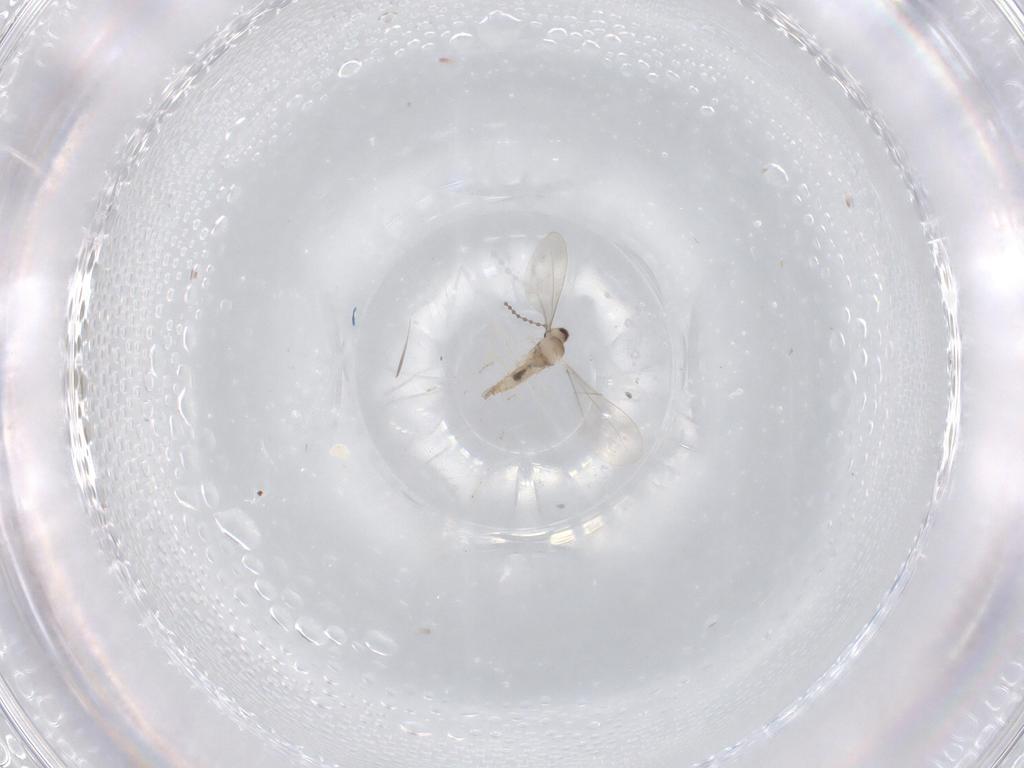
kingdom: Animalia
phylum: Arthropoda
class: Insecta
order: Diptera
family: Cecidomyiidae
